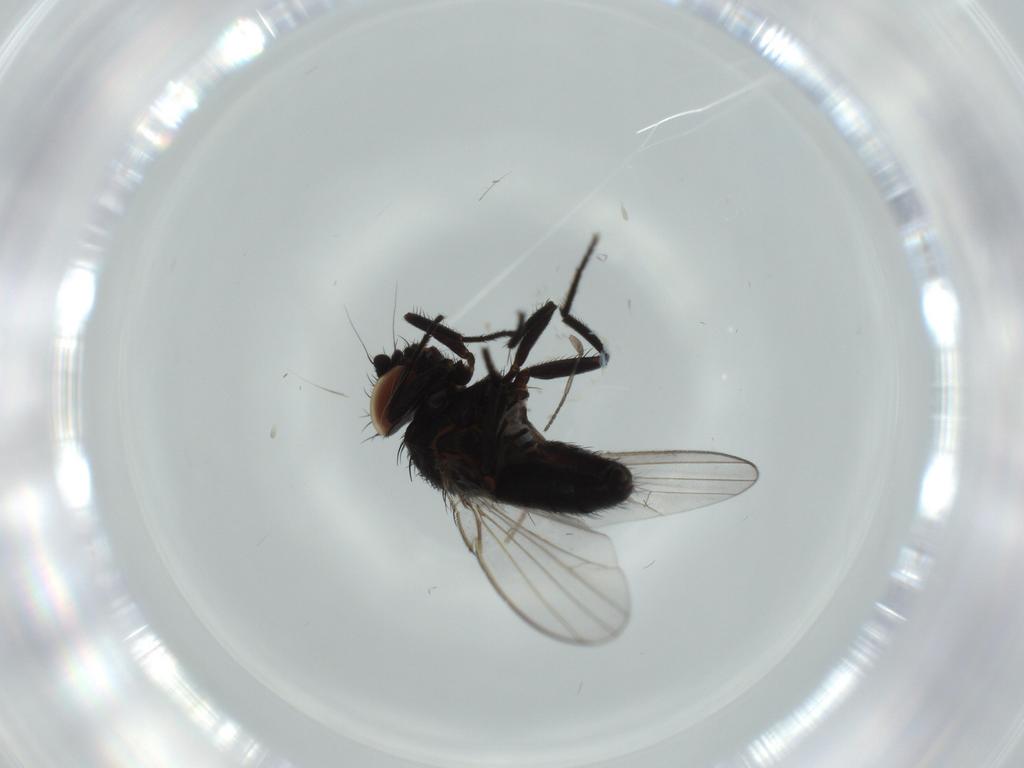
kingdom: Animalia
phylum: Arthropoda
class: Insecta
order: Diptera
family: Milichiidae
